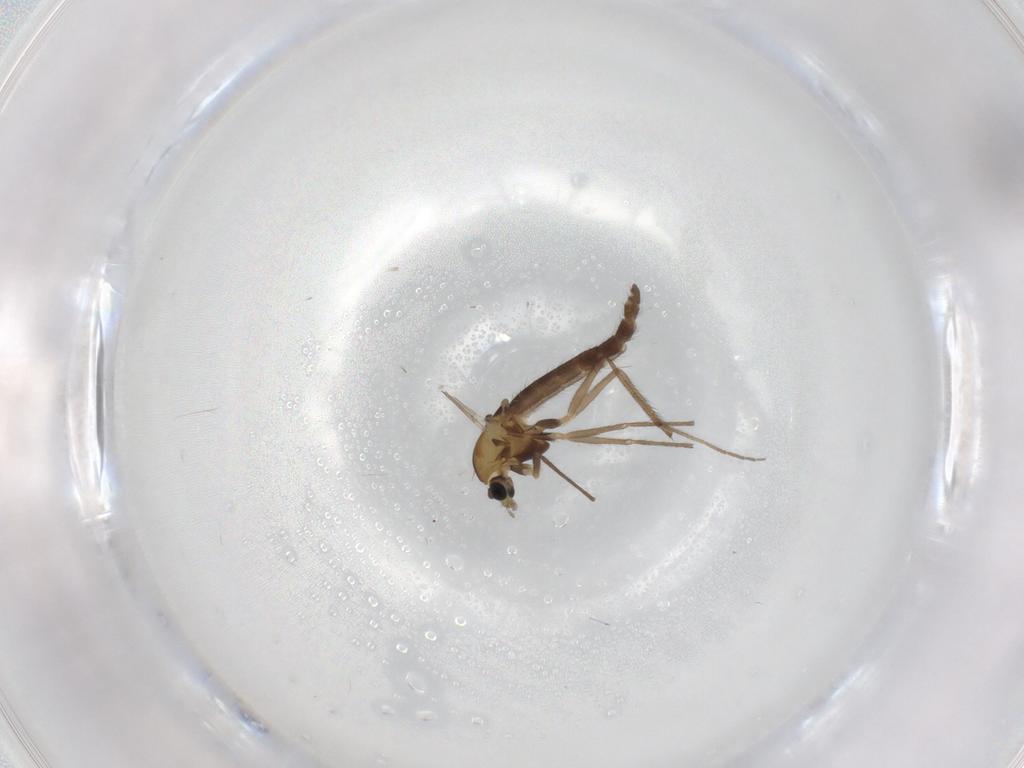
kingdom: Animalia
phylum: Arthropoda
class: Insecta
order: Diptera
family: Chironomidae
